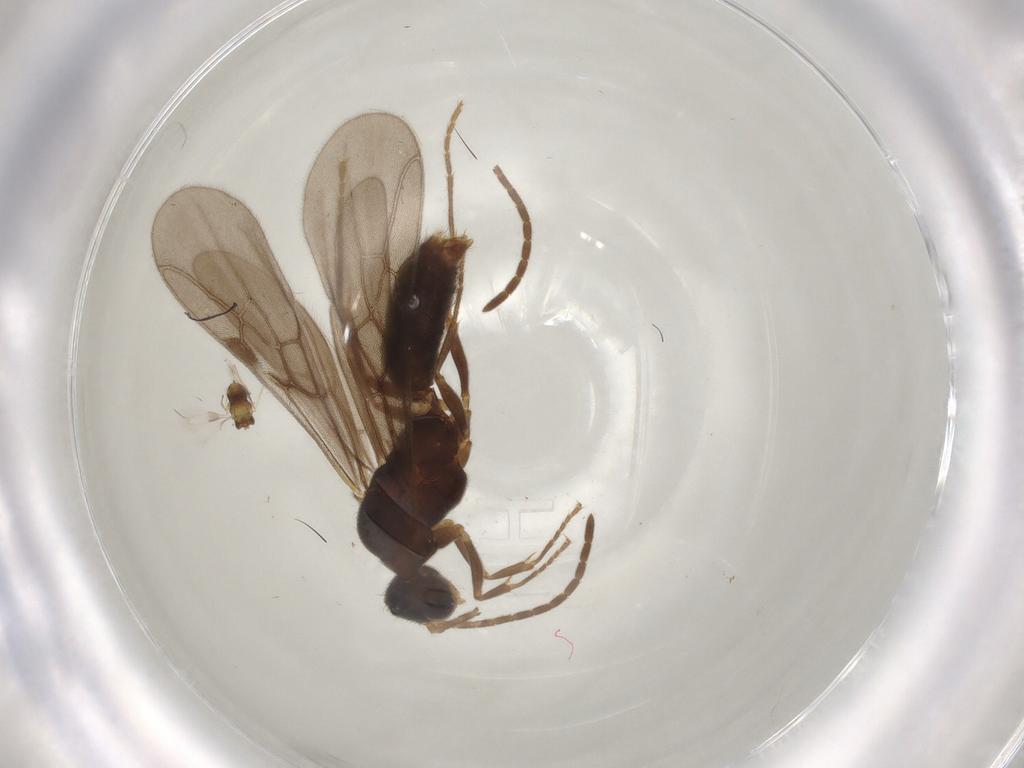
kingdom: Animalia
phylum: Arthropoda
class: Insecta
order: Hymenoptera
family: Formicidae
